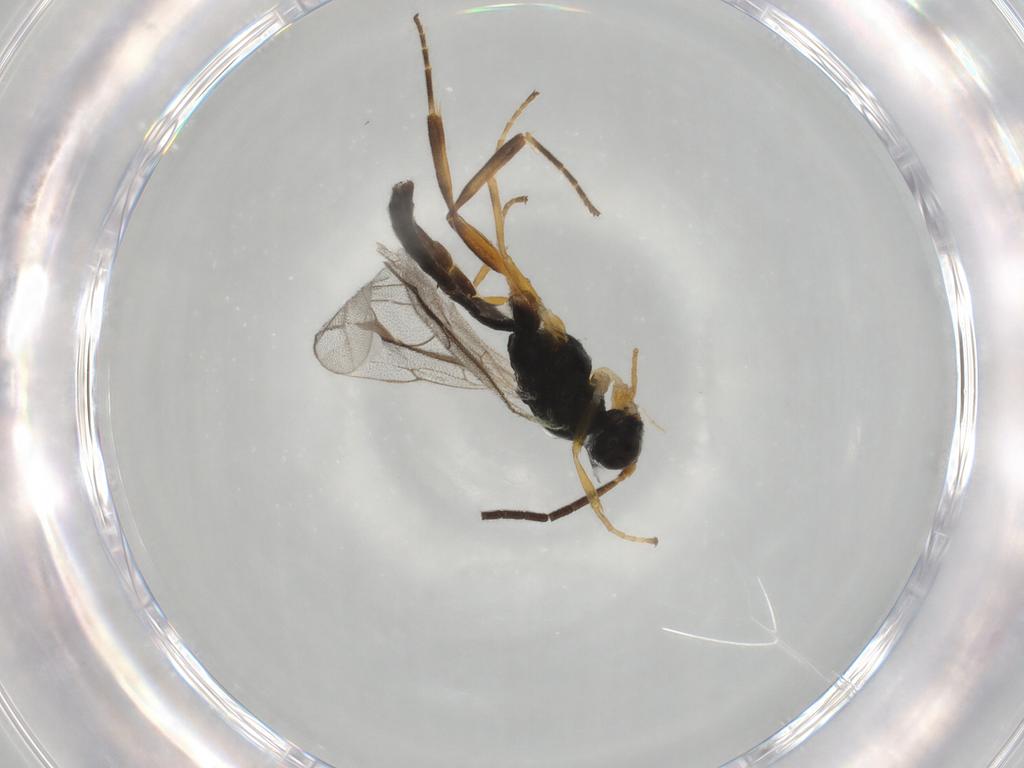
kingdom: Animalia
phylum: Arthropoda
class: Insecta
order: Hymenoptera
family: Ichneumonidae
